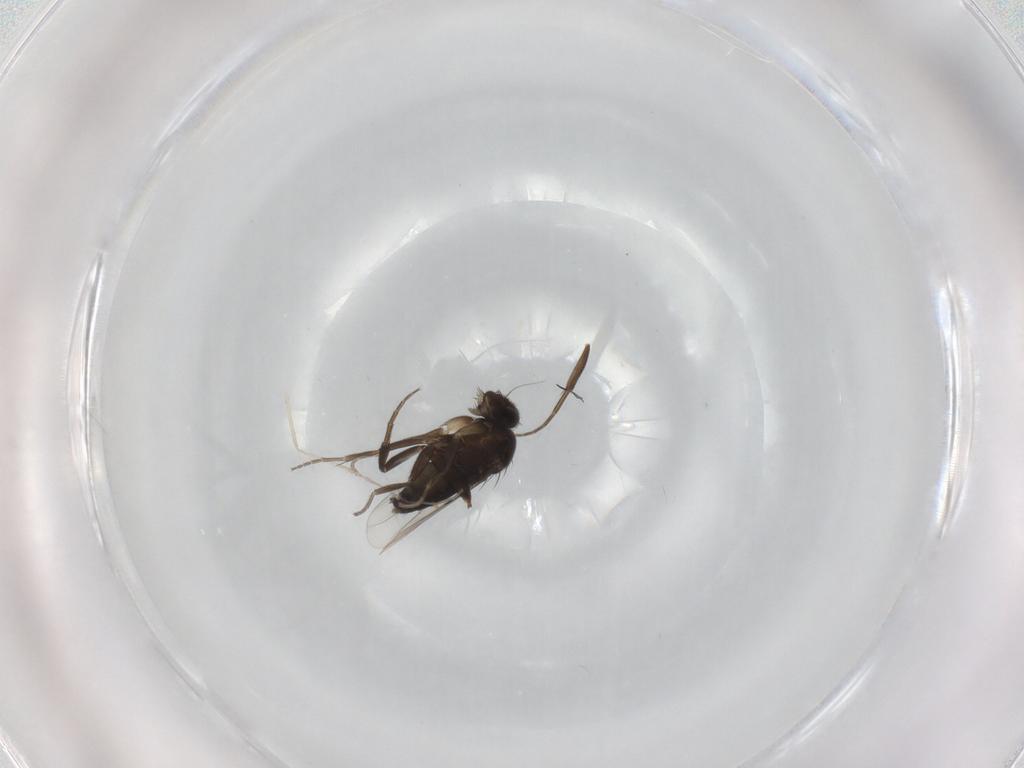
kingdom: Animalia
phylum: Arthropoda
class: Insecta
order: Diptera
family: Phoridae
